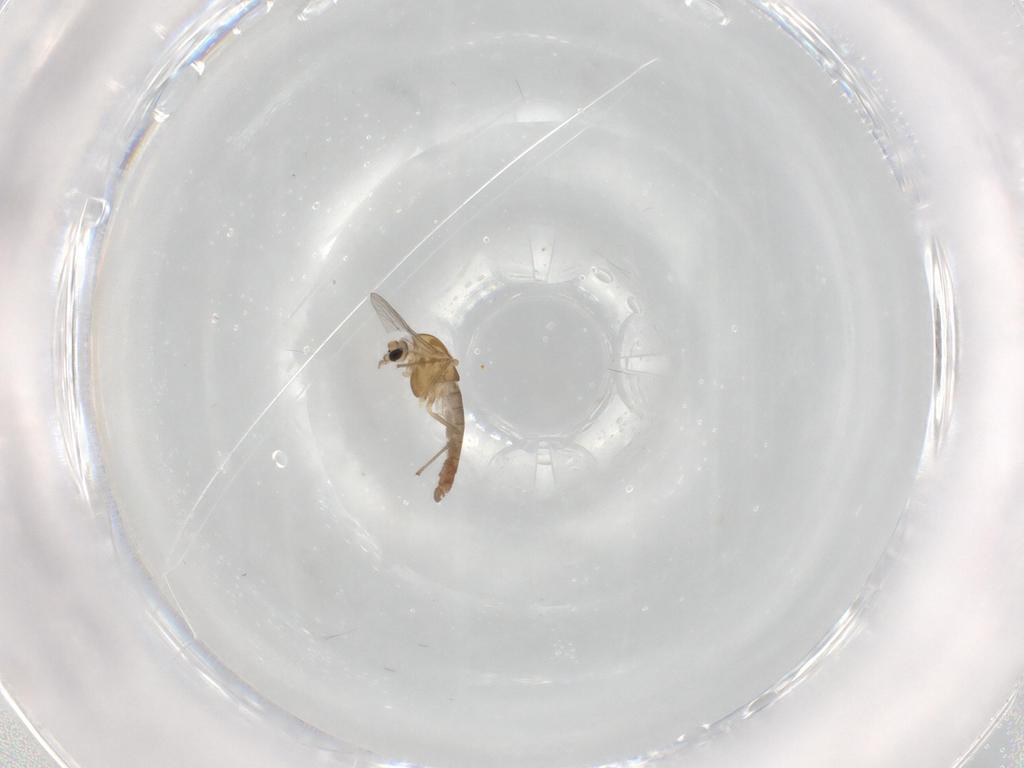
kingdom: Animalia
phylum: Arthropoda
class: Insecta
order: Diptera
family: Chironomidae
